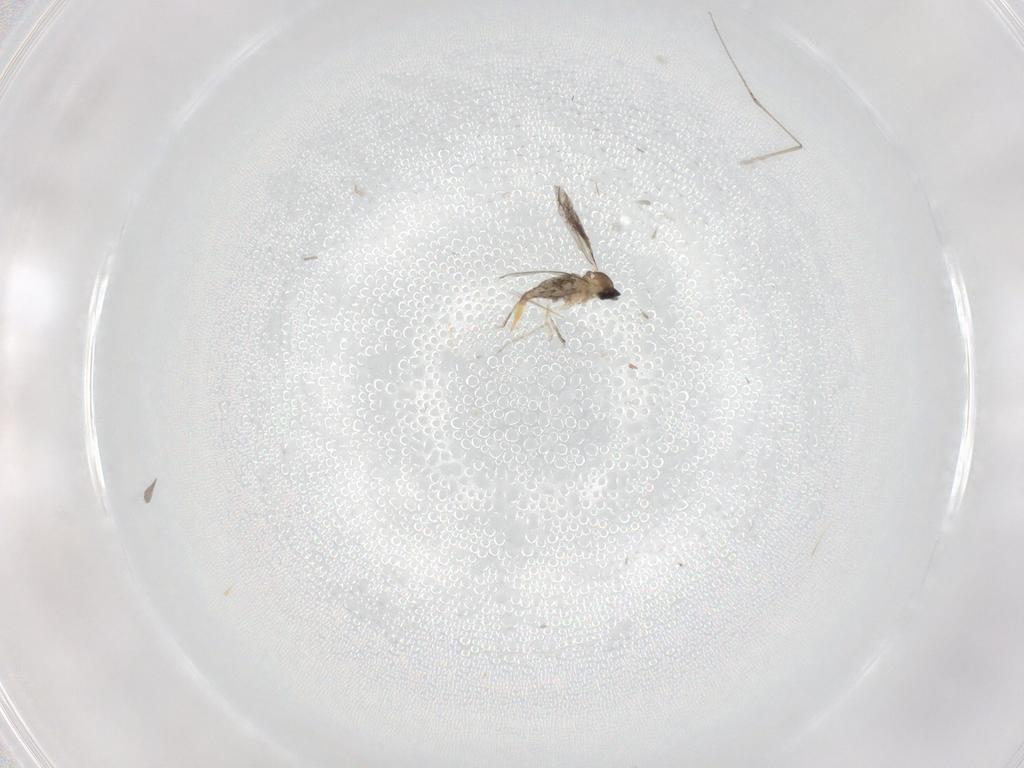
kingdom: Animalia
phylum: Arthropoda
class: Insecta
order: Diptera
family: Cecidomyiidae
